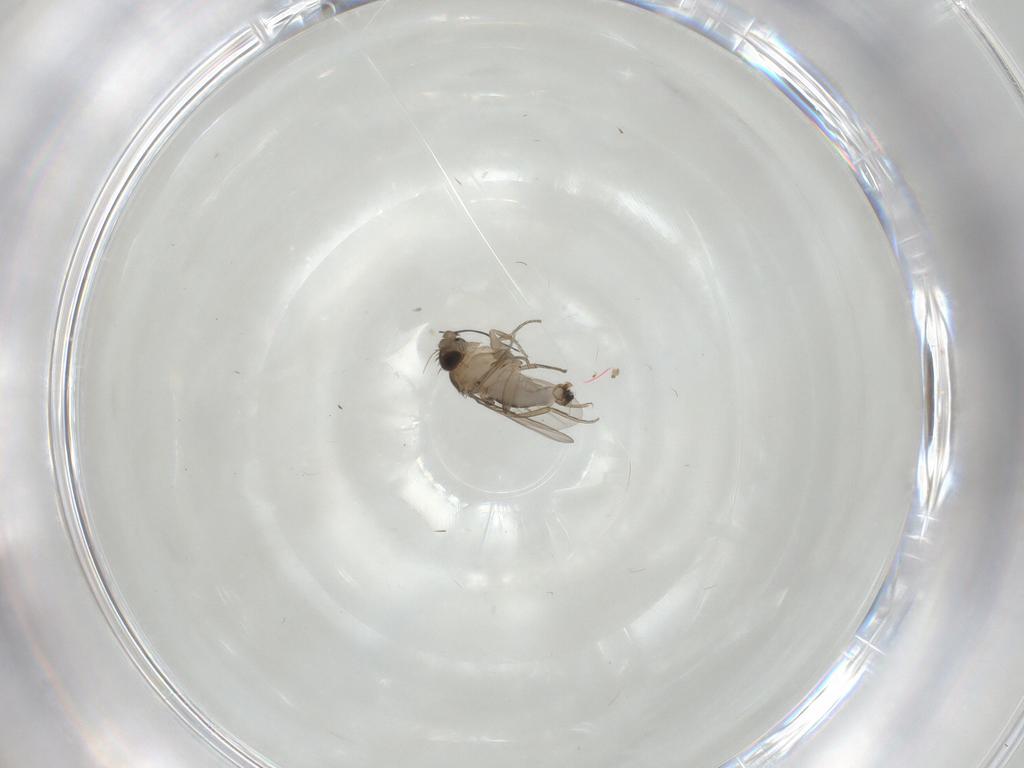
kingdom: Animalia
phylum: Arthropoda
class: Insecta
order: Diptera
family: Phoridae
